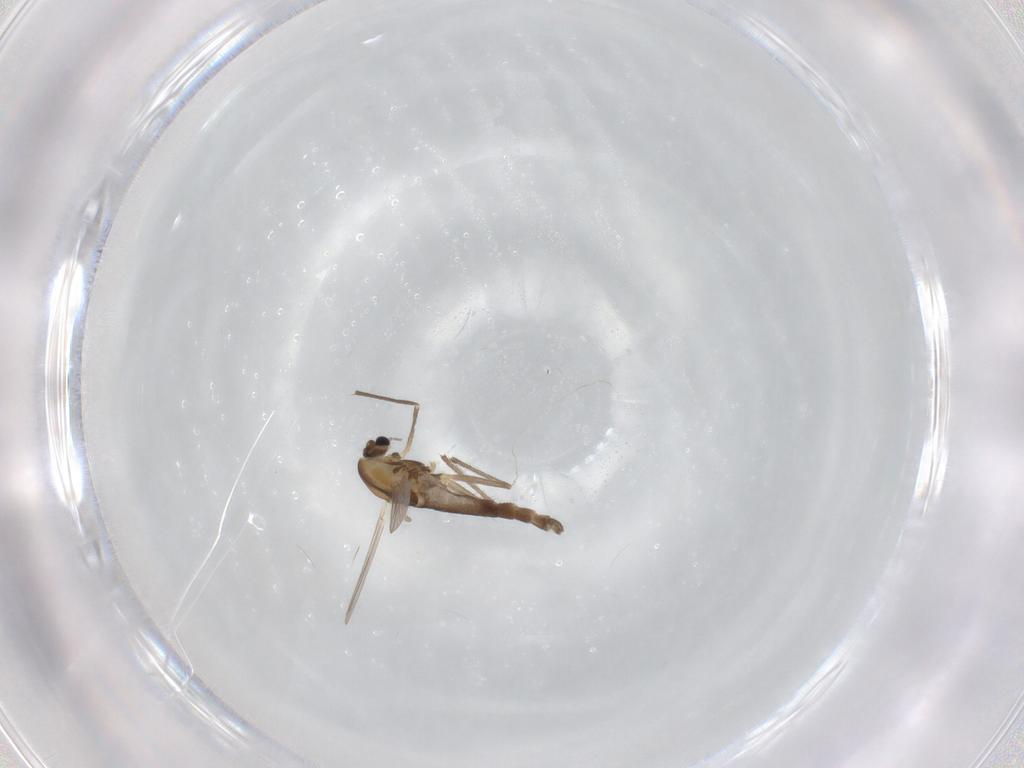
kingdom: Animalia
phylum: Arthropoda
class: Insecta
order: Diptera
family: Chironomidae
